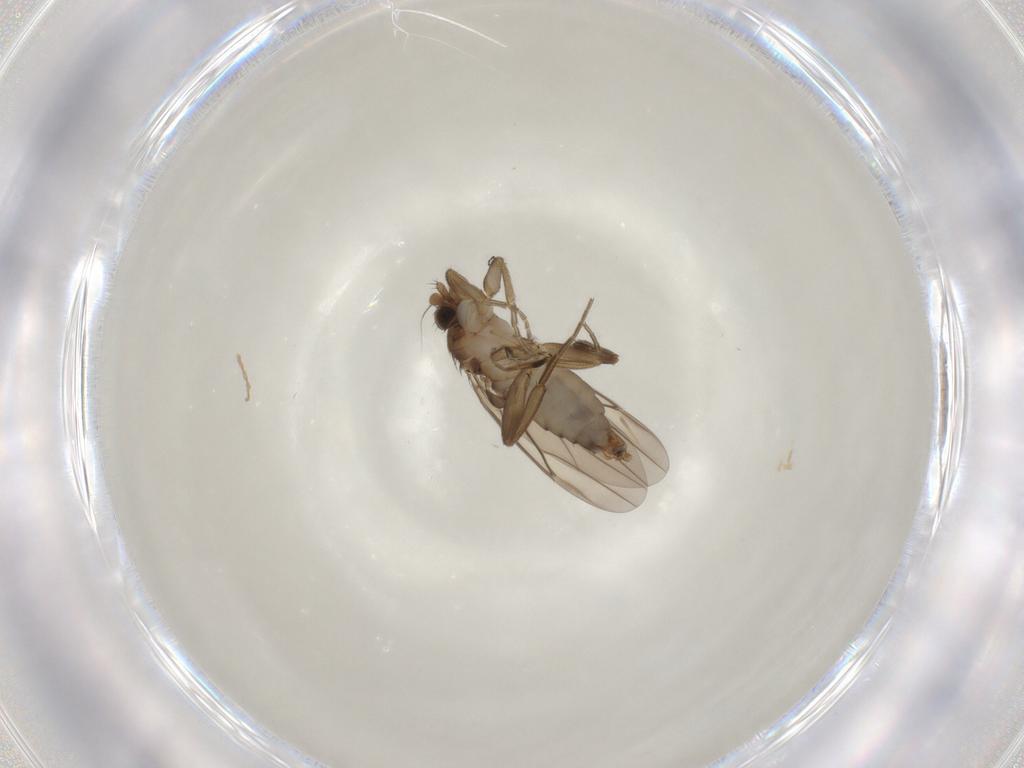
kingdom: Animalia
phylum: Arthropoda
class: Insecta
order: Diptera
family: Phoridae
